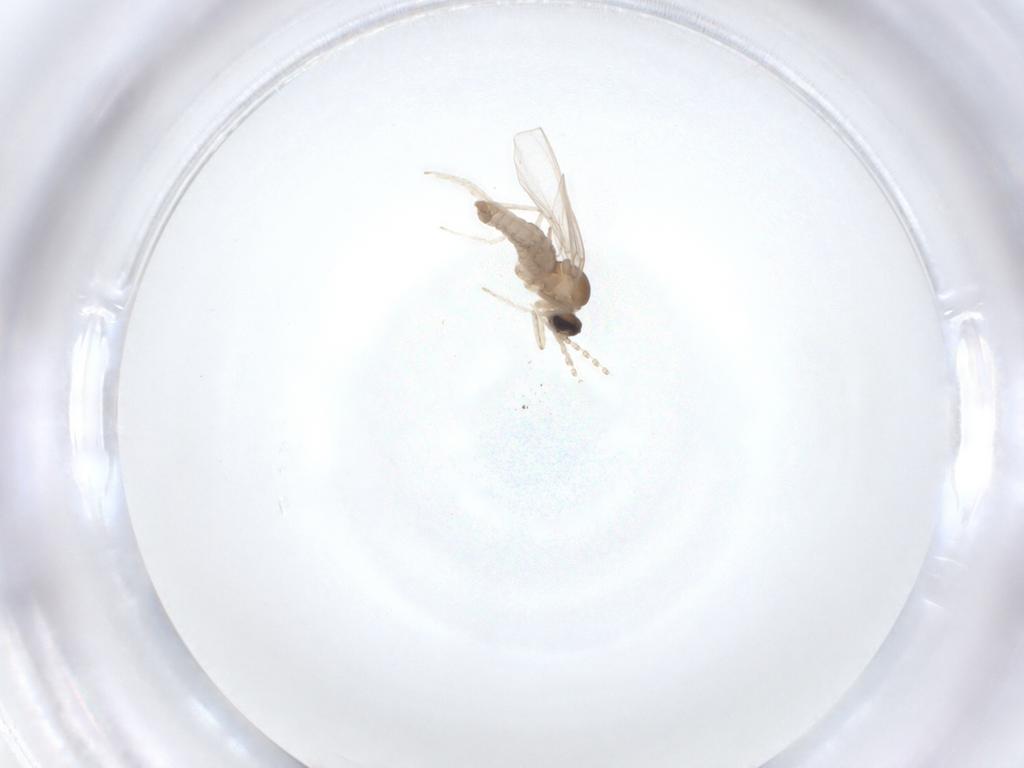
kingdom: Animalia
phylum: Arthropoda
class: Insecta
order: Diptera
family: Cecidomyiidae
